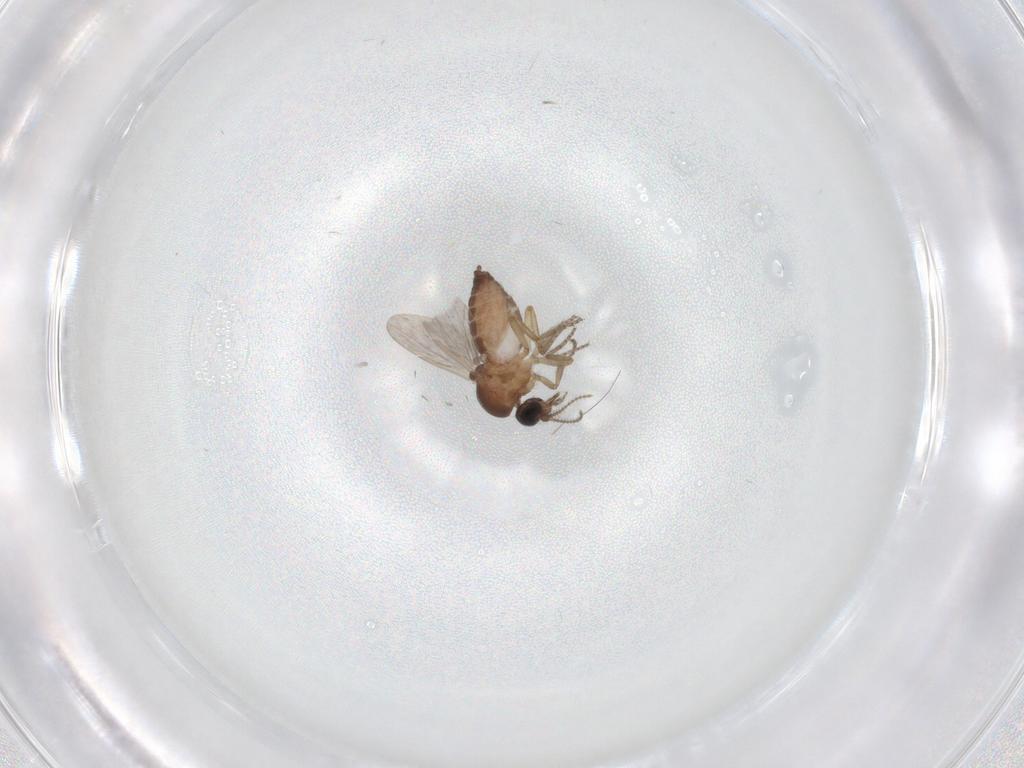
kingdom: Animalia
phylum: Arthropoda
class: Insecta
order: Diptera
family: Ceratopogonidae
